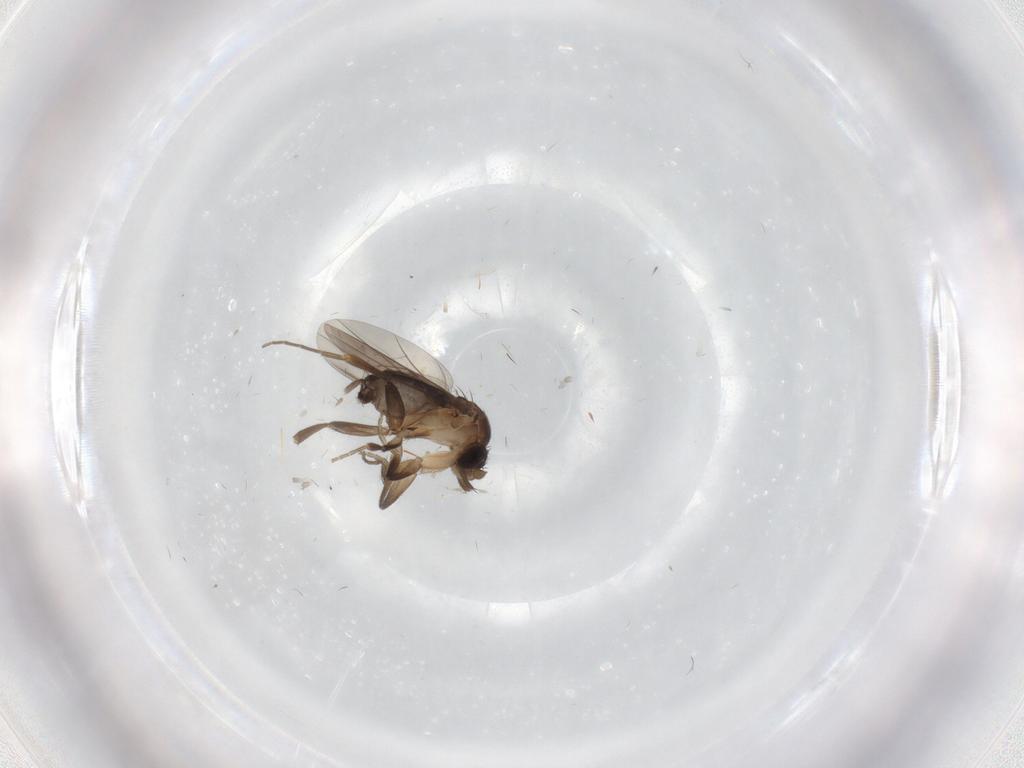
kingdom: Animalia
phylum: Arthropoda
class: Insecta
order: Diptera
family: Phoridae
